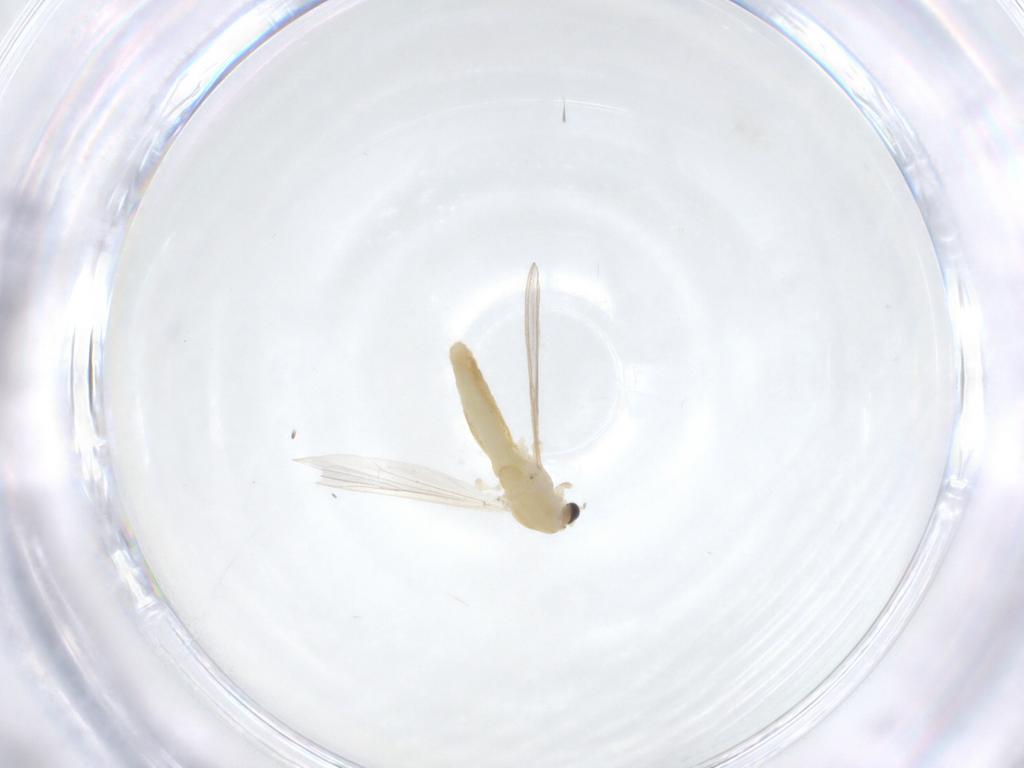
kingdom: Animalia
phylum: Arthropoda
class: Insecta
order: Diptera
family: Chironomidae
